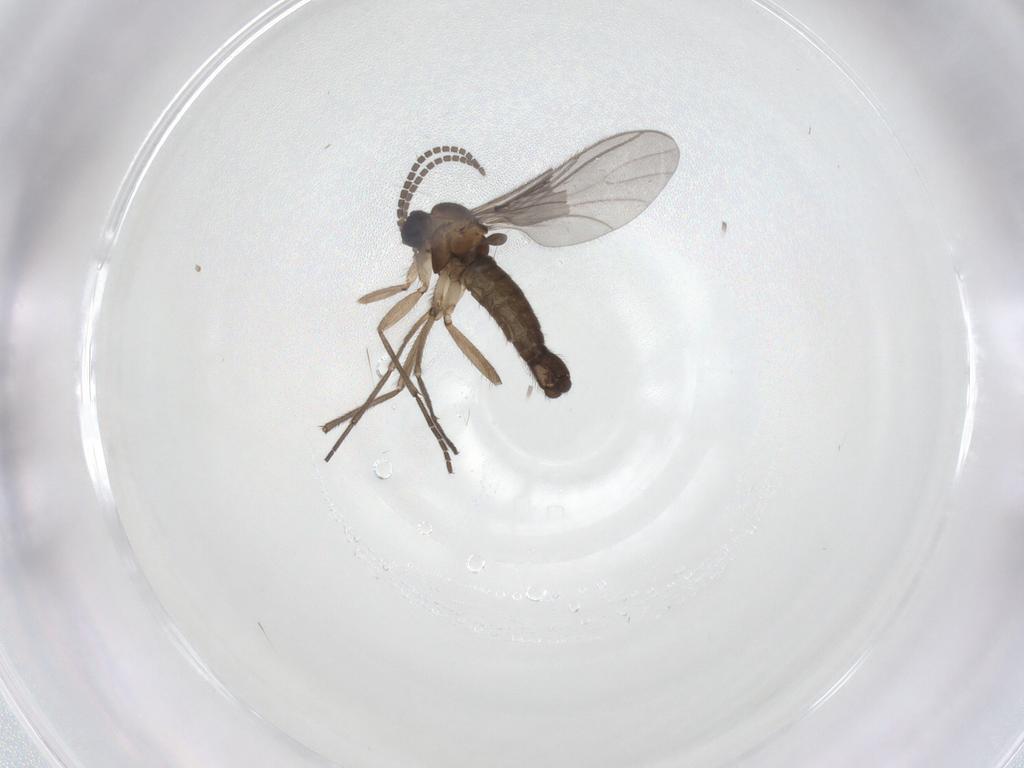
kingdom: Animalia
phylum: Arthropoda
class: Insecta
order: Diptera
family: Sciaridae
